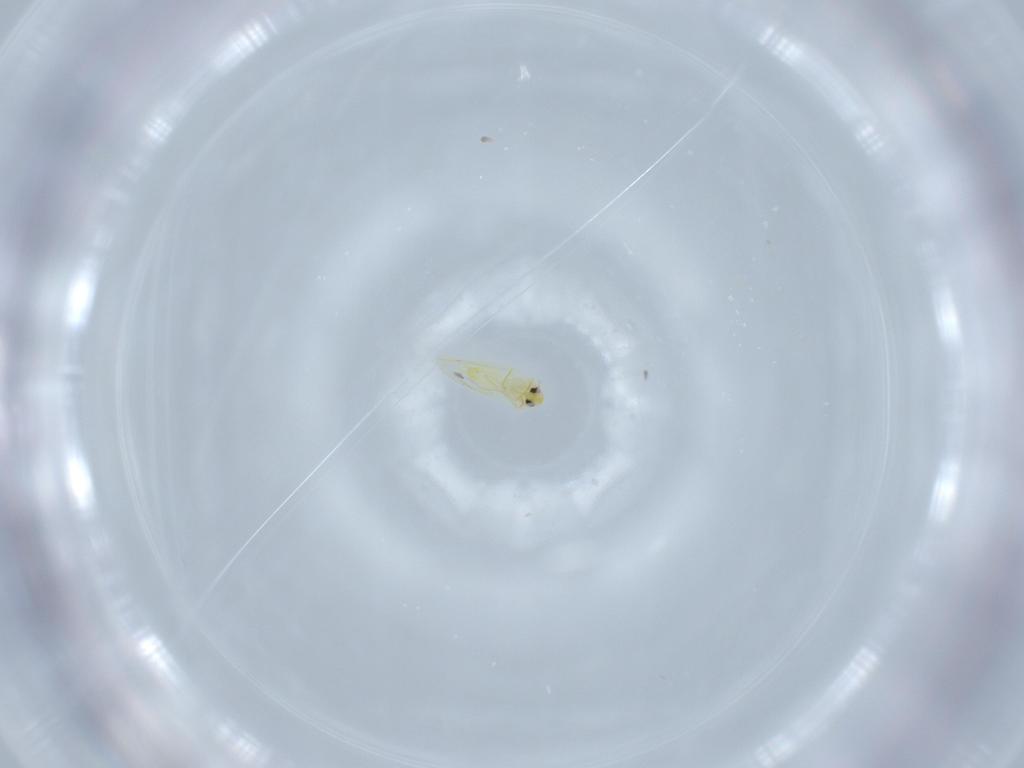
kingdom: Animalia
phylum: Arthropoda
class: Insecta
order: Hemiptera
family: Aleyrodidae
